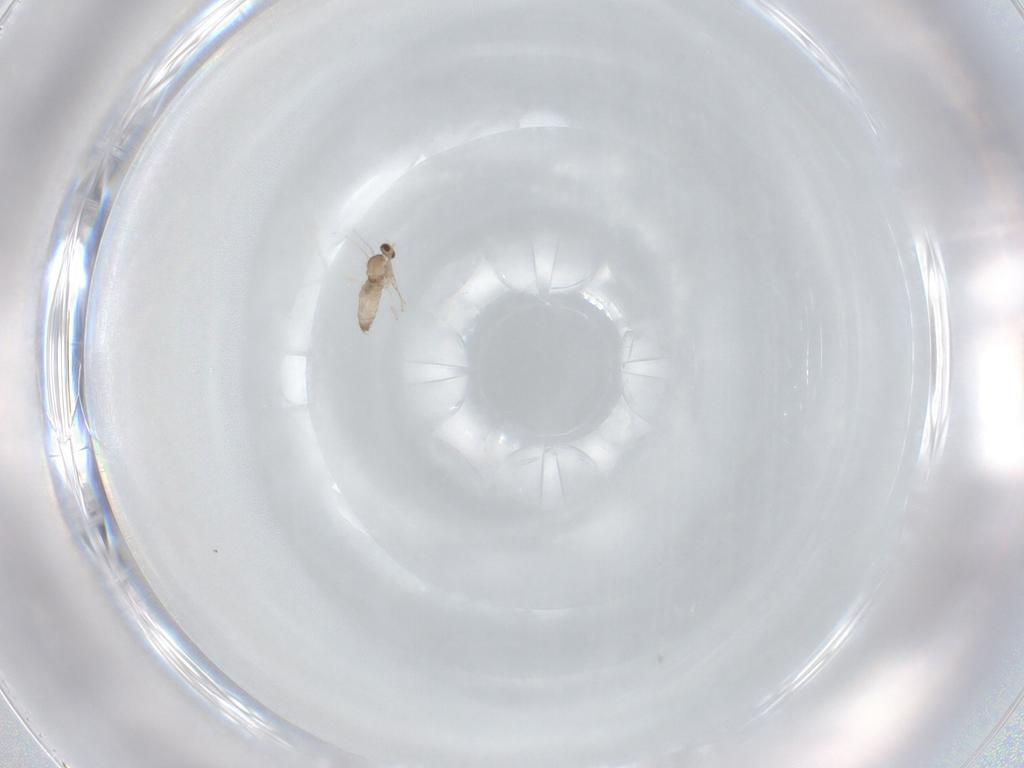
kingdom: Animalia
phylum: Arthropoda
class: Insecta
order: Diptera
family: Cecidomyiidae
